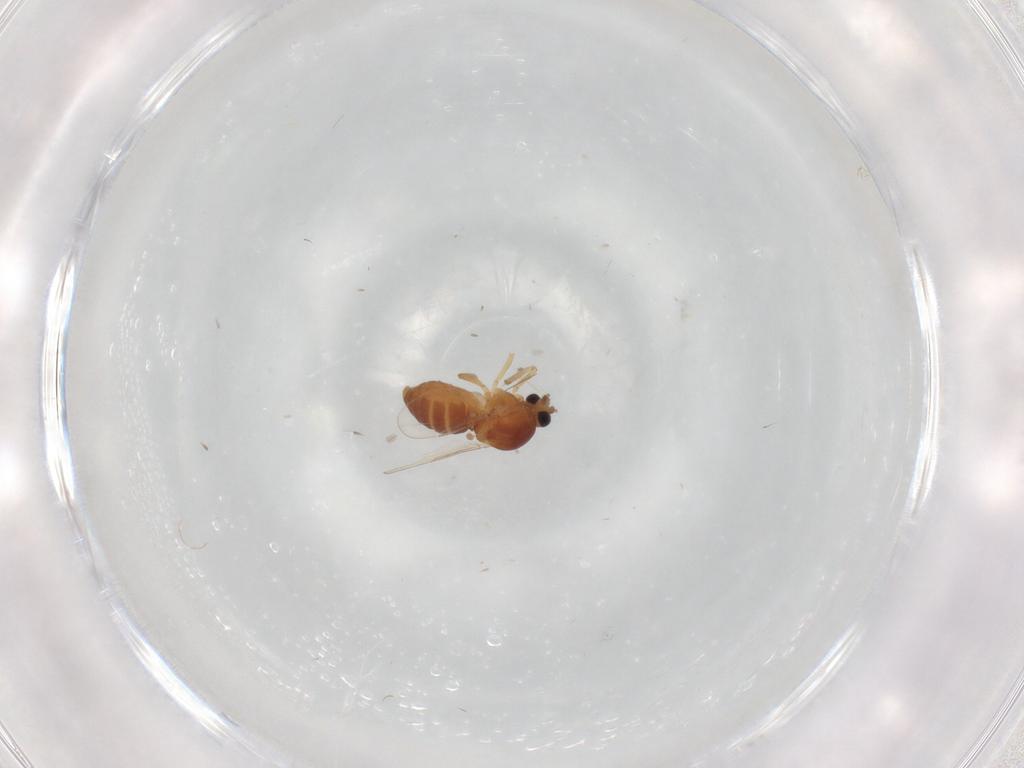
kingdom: Animalia
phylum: Arthropoda
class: Insecta
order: Diptera
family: Ceratopogonidae
